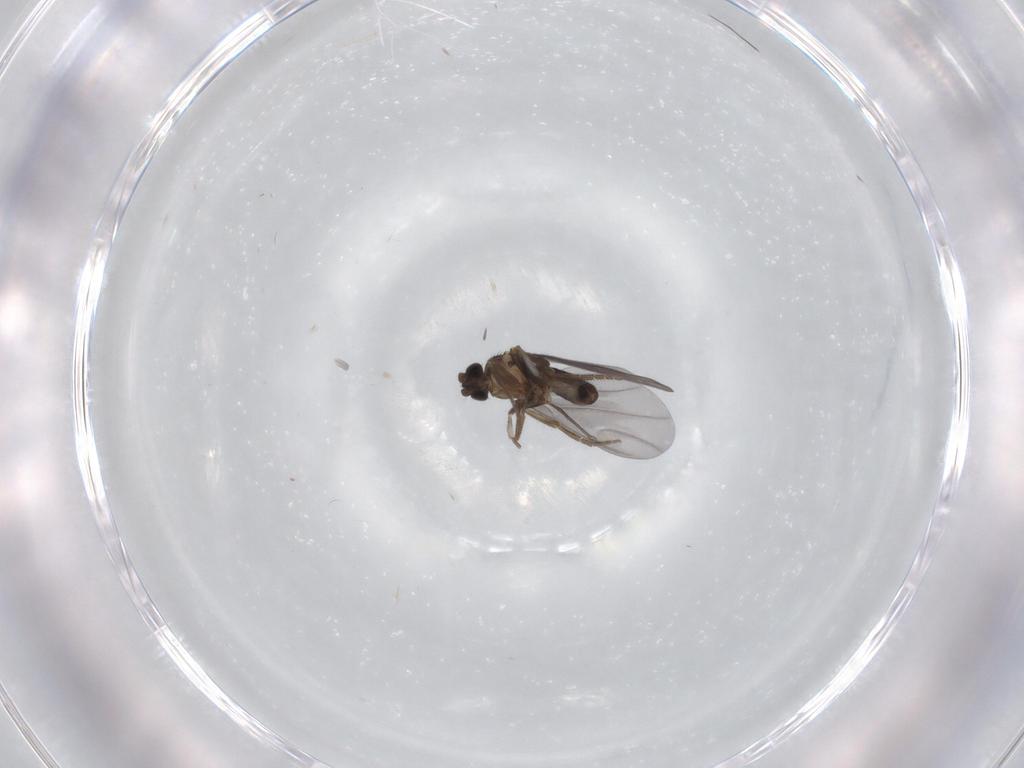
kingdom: Animalia
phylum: Arthropoda
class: Insecta
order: Diptera
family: Phoridae
